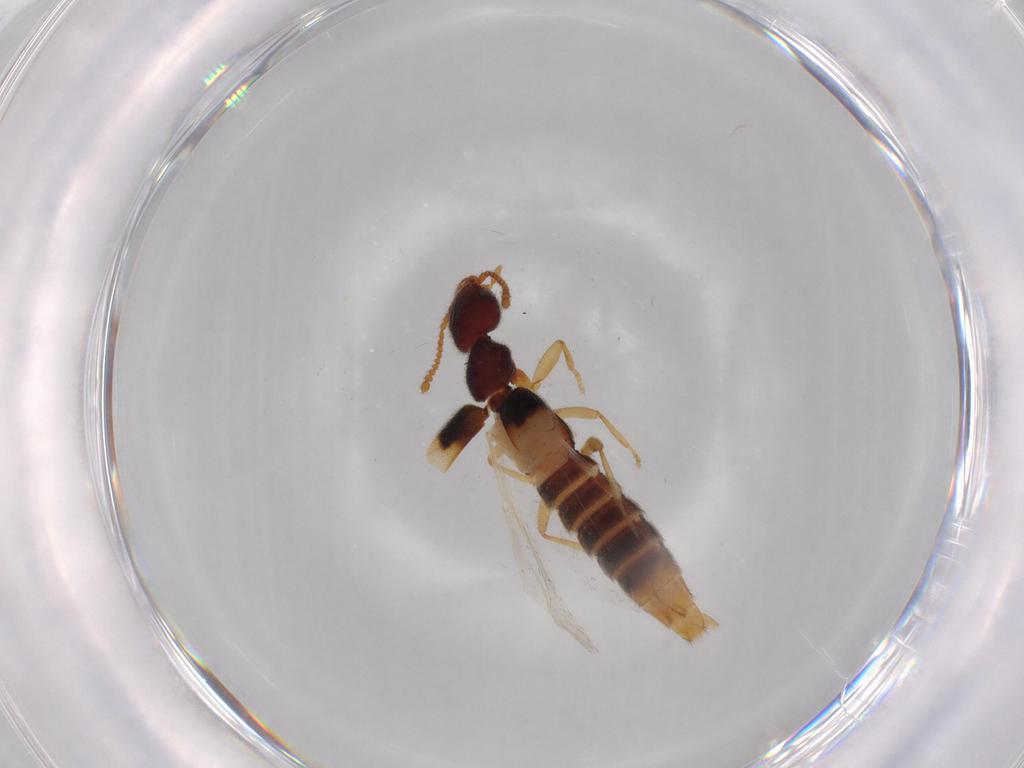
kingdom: Animalia
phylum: Arthropoda
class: Insecta
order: Coleoptera
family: Staphylinidae
